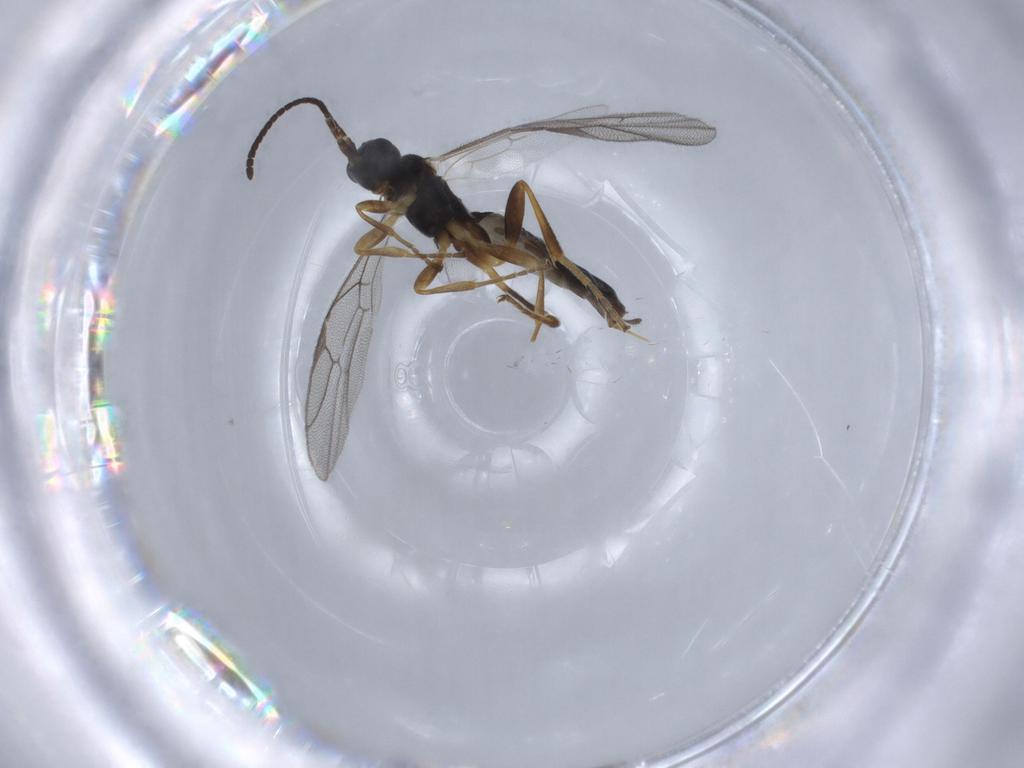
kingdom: Animalia
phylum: Arthropoda
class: Insecta
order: Hymenoptera
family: Ichneumonidae
